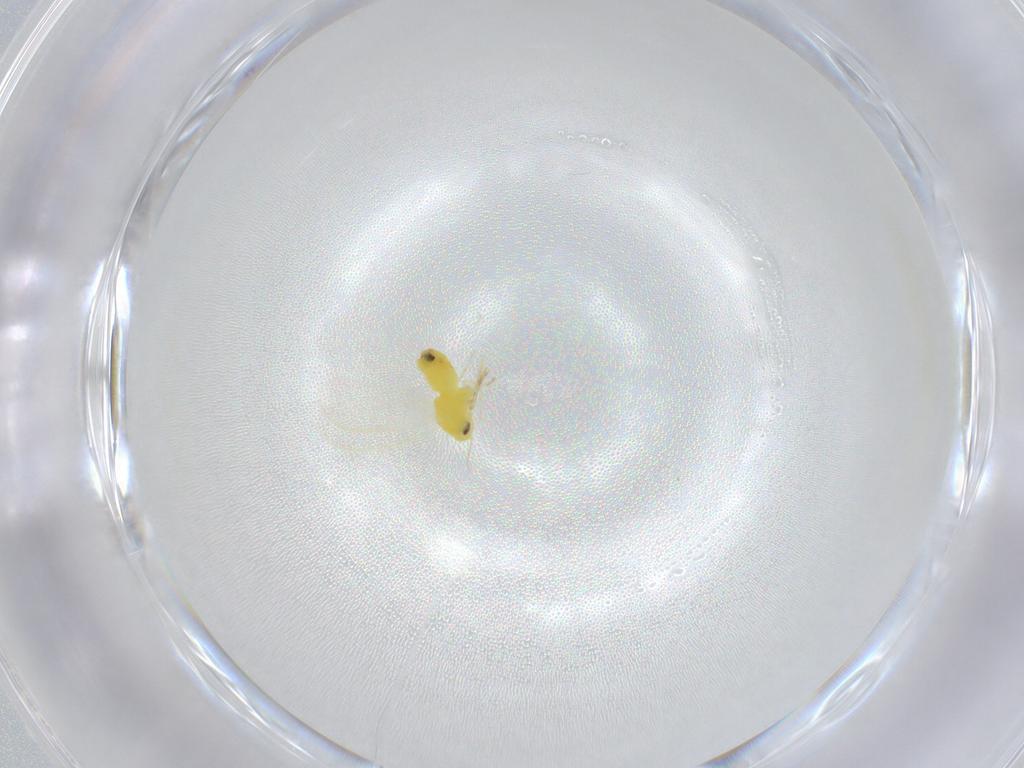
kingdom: Animalia
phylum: Arthropoda
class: Insecta
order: Hemiptera
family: Aleyrodidae
